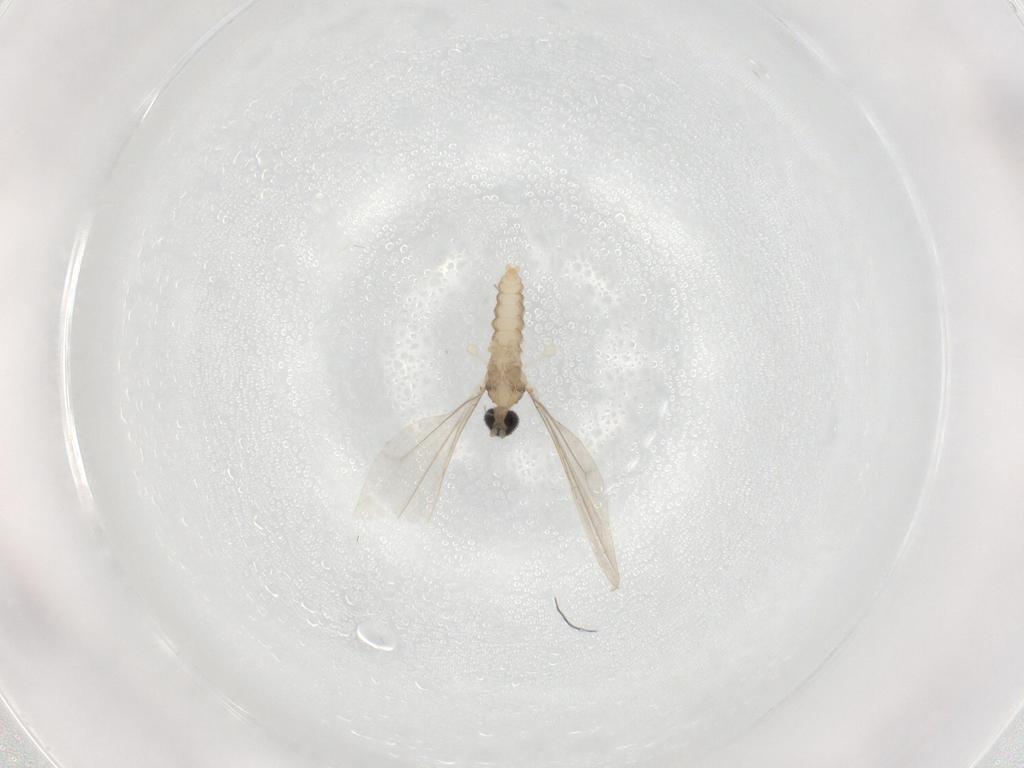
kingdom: Animalia
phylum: Arthropoda
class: Insecta
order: Diptera
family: Cecidomyiidae
